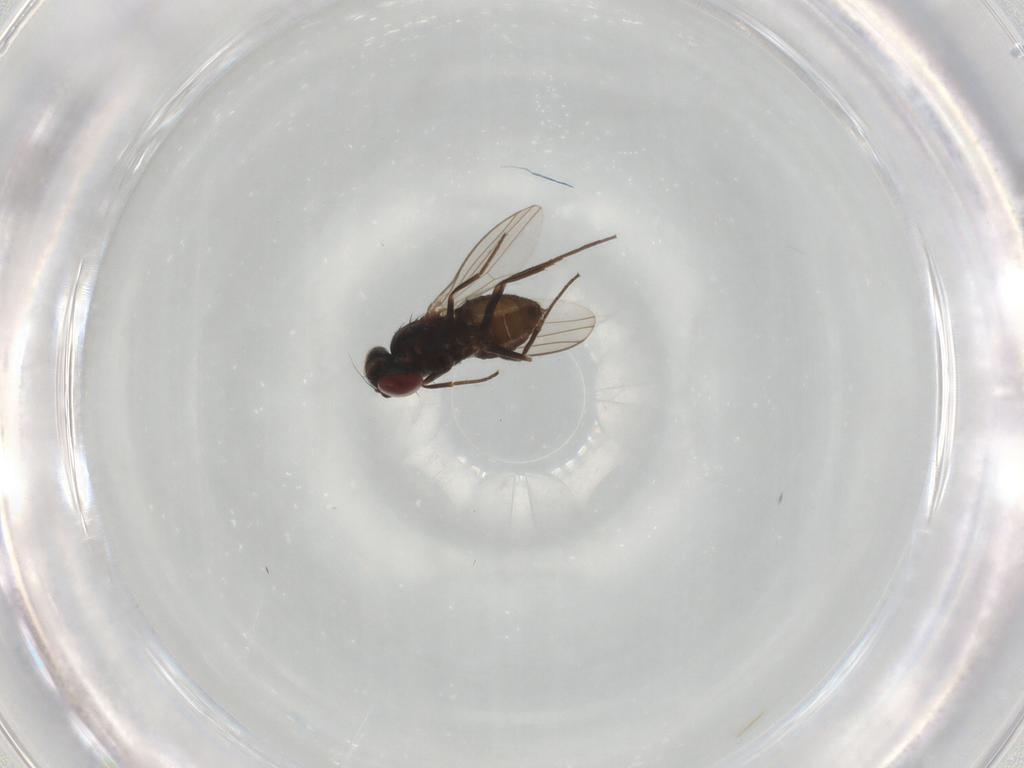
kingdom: Animalia
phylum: Arthropoda
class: Insecta
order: Diptera
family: Dolichopodidae
